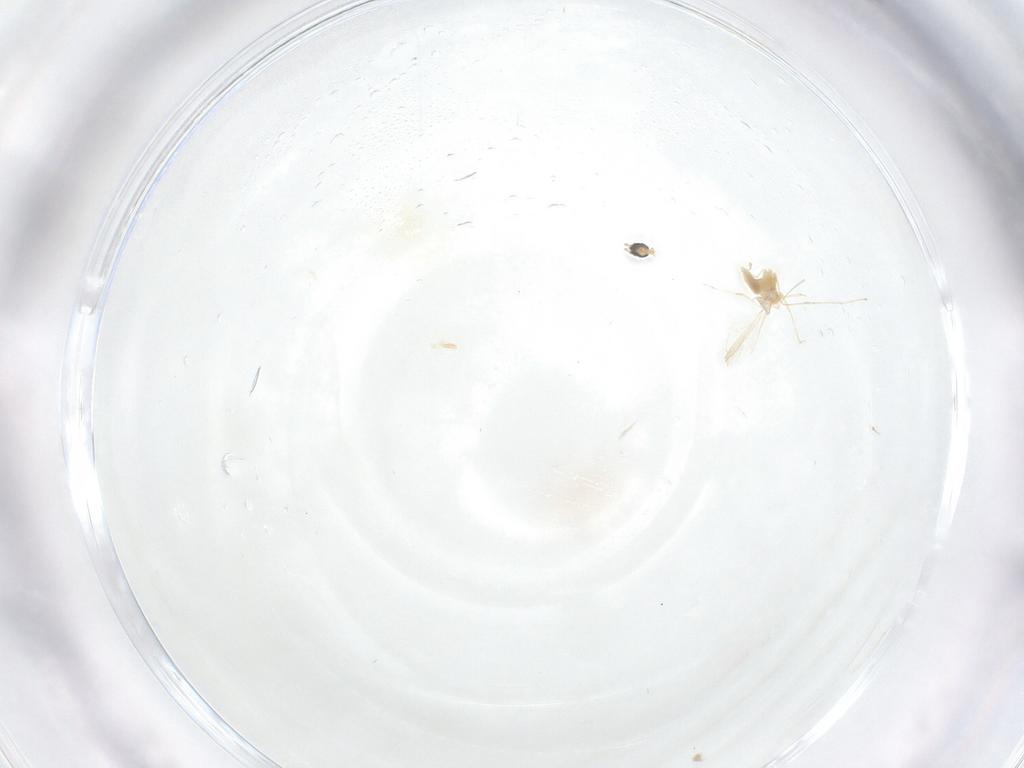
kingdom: Animalia
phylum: Arthropoda
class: Insecta
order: Diptera
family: Cecidomyiidae
